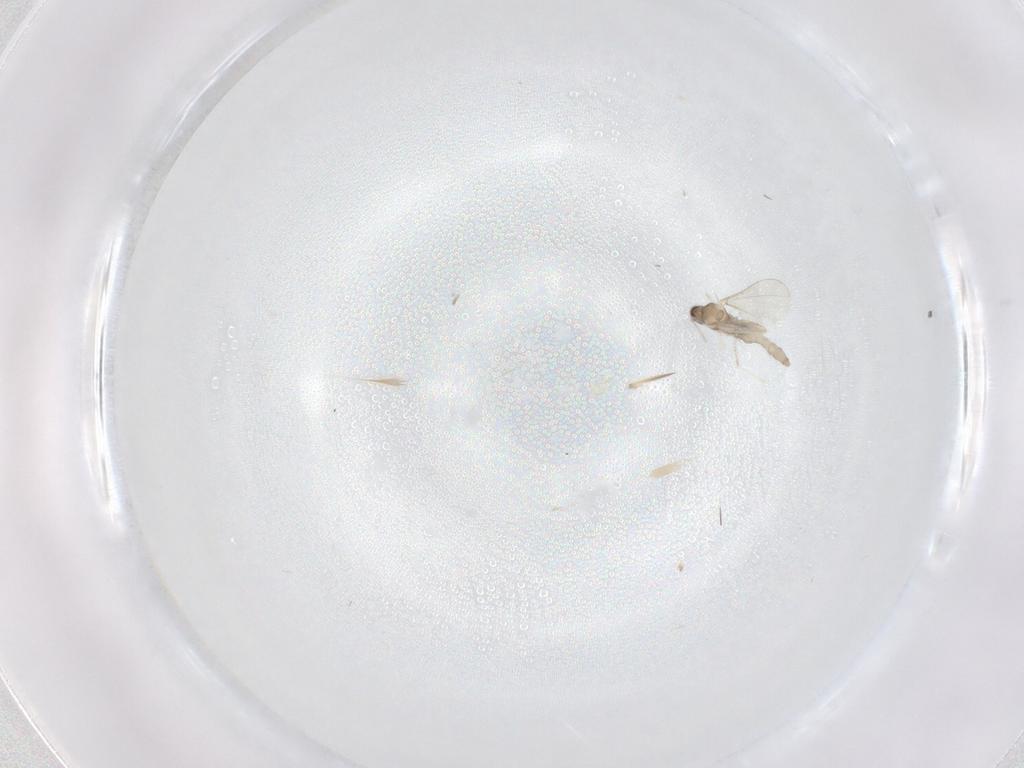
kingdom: Animalia
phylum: Arthropoda
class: Insecta
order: Diptera
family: Cecidomyiidae
